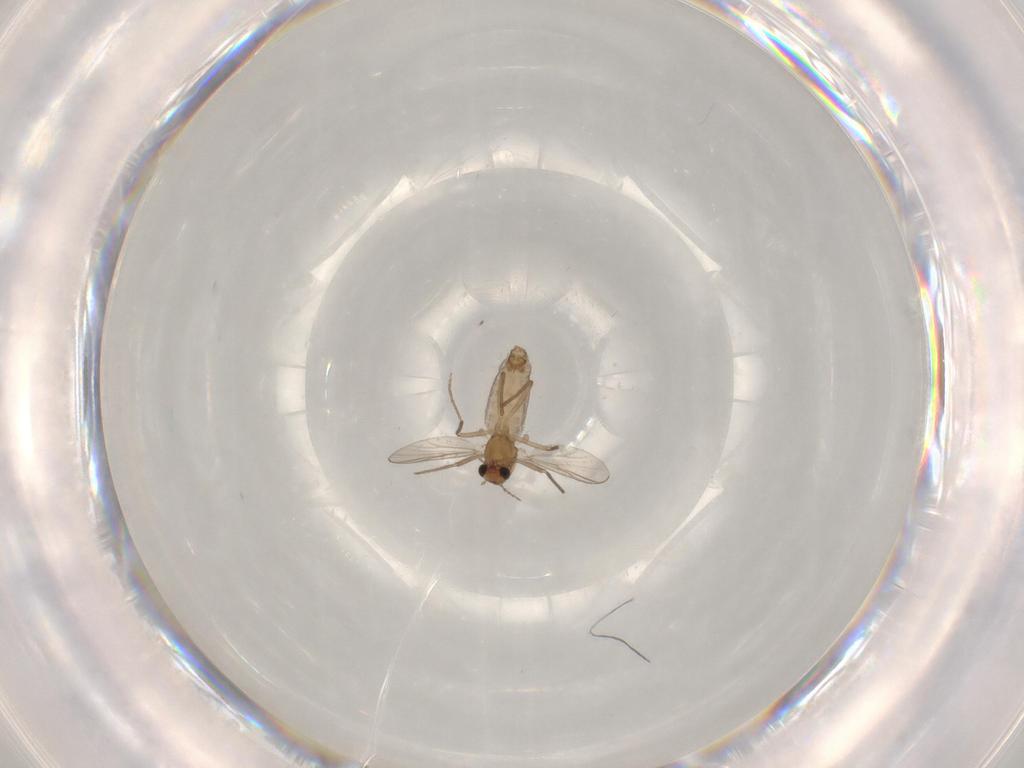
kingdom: Animalia
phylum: Arthropoda
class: Insecta
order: Diptera
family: Chironomidae
